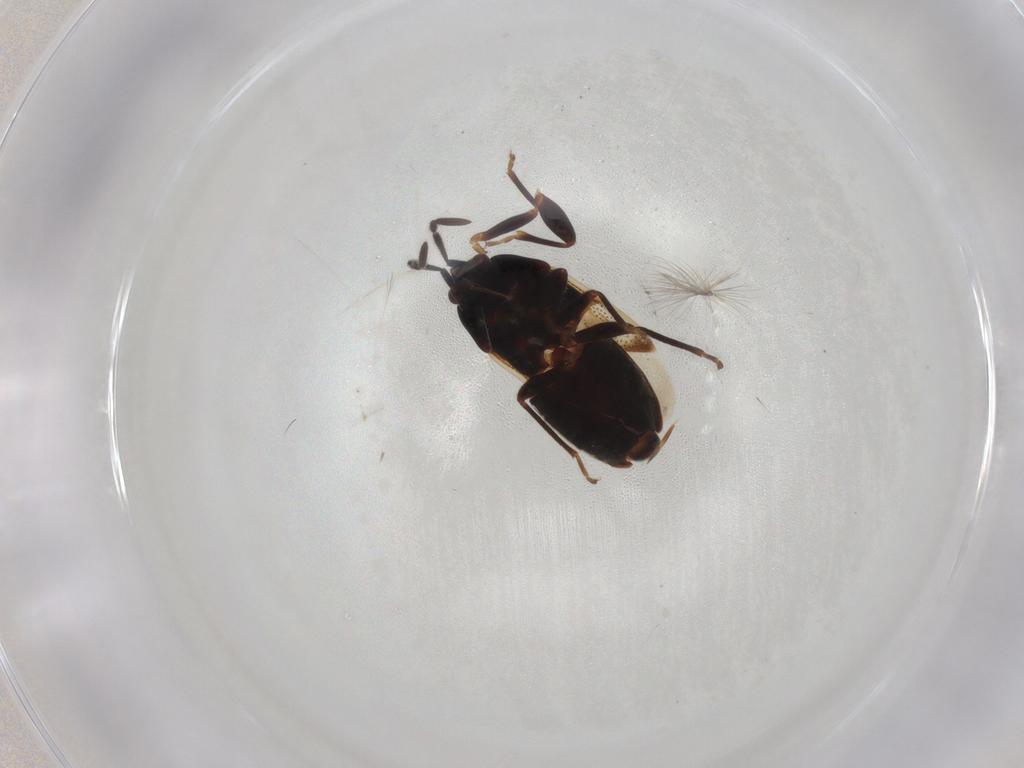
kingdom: Animalia
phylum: Arthropoda
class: Insecta
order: Hemiptera
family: Rhyparochromidae
